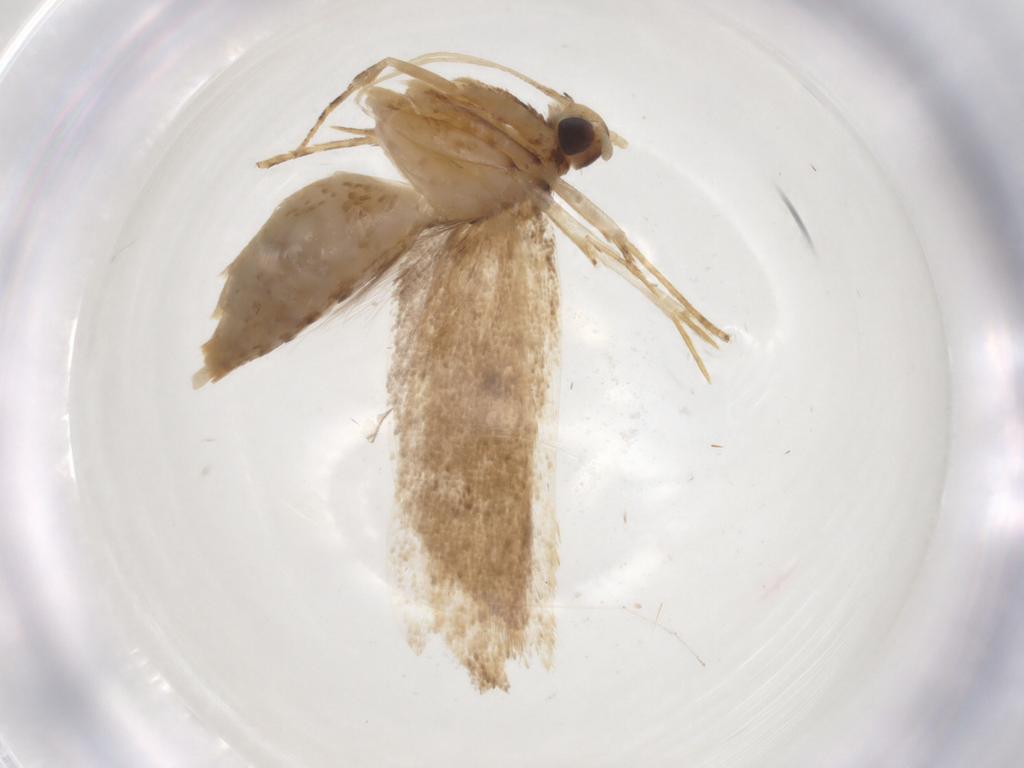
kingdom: Animalia
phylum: Arthropoda
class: Insecta
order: Lepidoptera
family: Lecithoceridae
